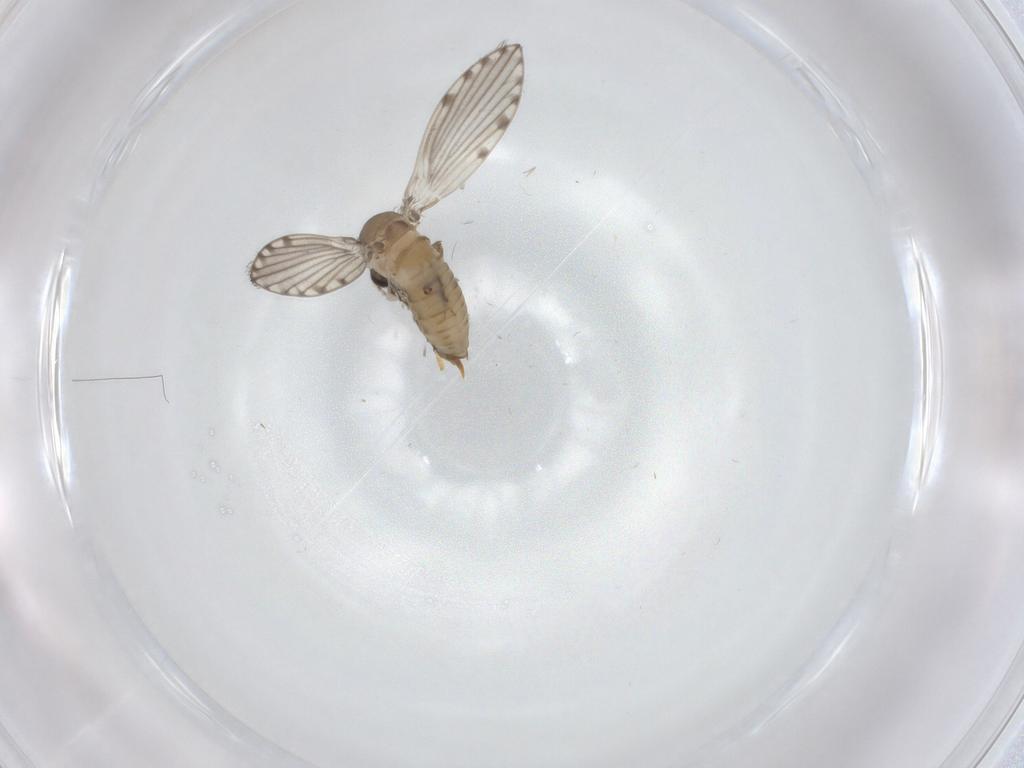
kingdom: Animalia
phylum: Arthropoda
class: Insecta
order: Diptera
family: Psychodidae
